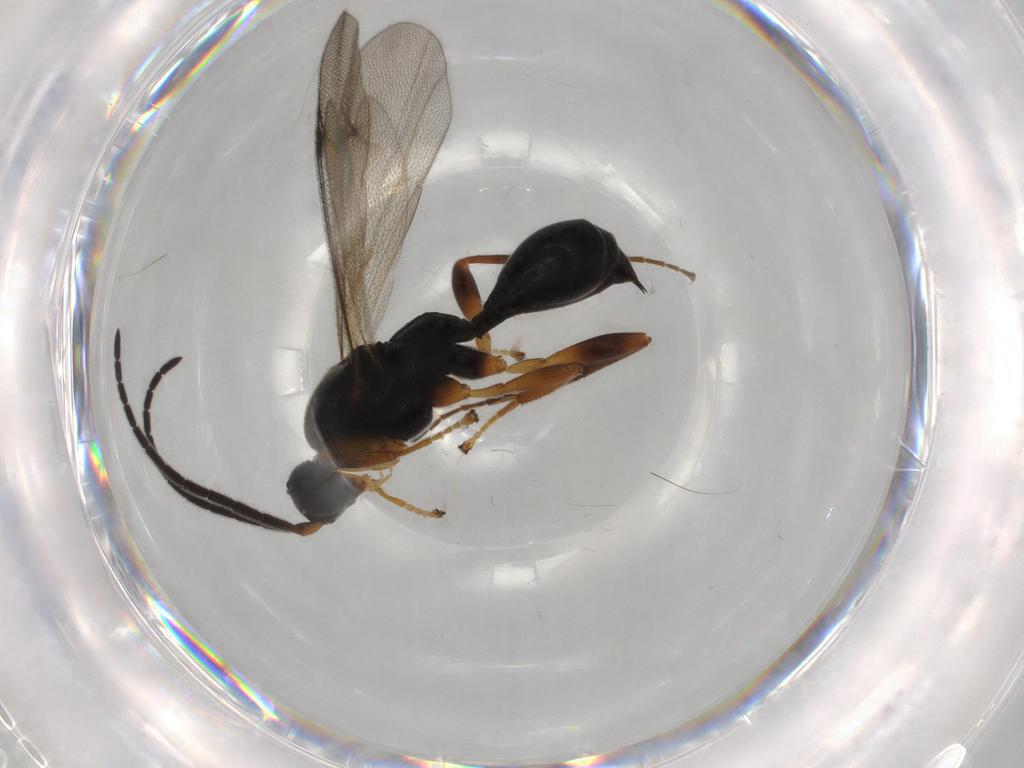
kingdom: Animalia
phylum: Arthropoda
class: Insecta
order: Hymenoptera
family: Proctotrupidae
